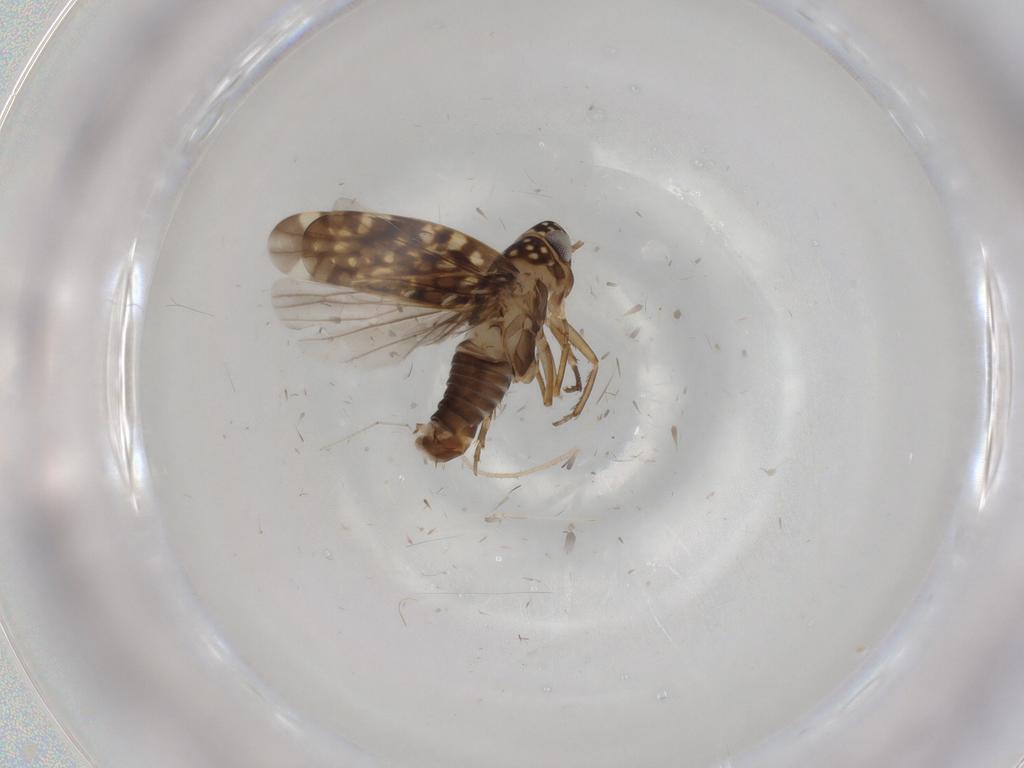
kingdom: Animalia
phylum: Arthropoda
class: Insecta
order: Hemiptera
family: Cicadellidae
